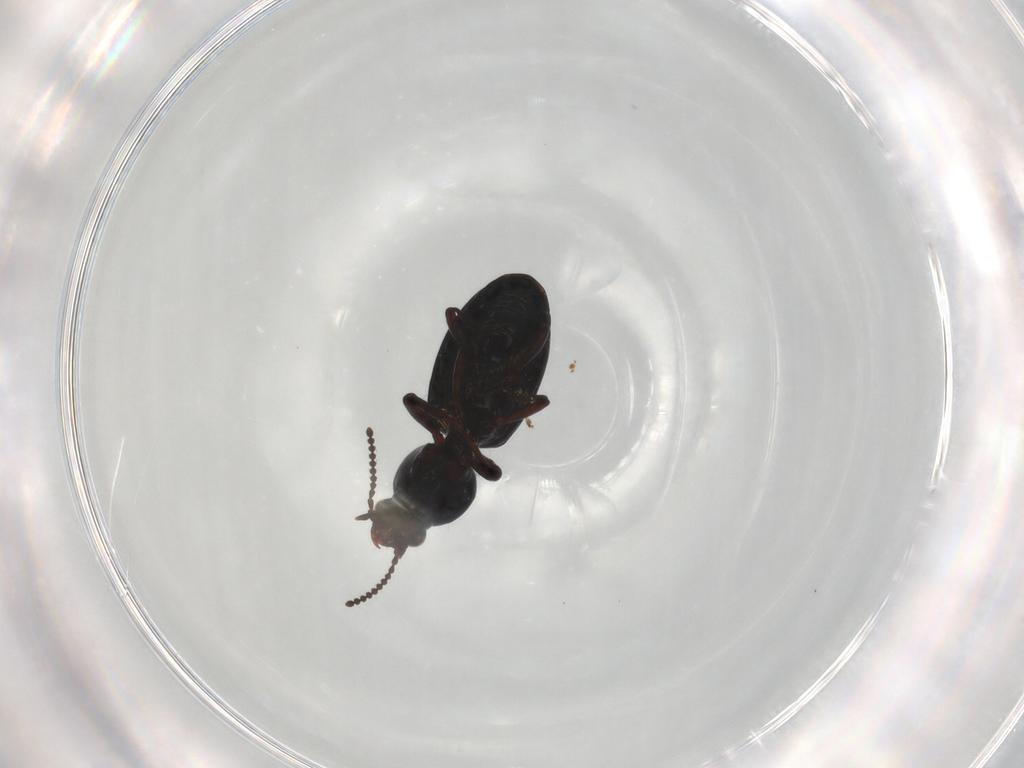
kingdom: Animalia
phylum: Arthropoda
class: Insecta
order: Coleoptera
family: Carabidae
